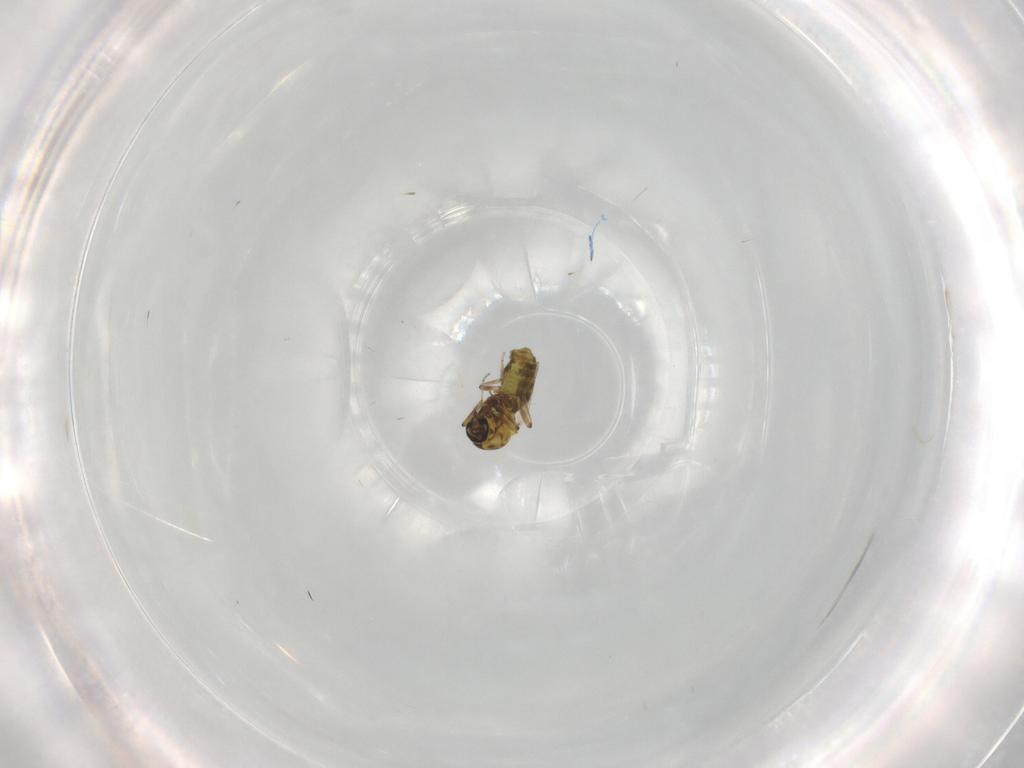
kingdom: Animalia
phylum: Arthropoda
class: Insecta
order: Diptera
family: Ceratopogonidae
